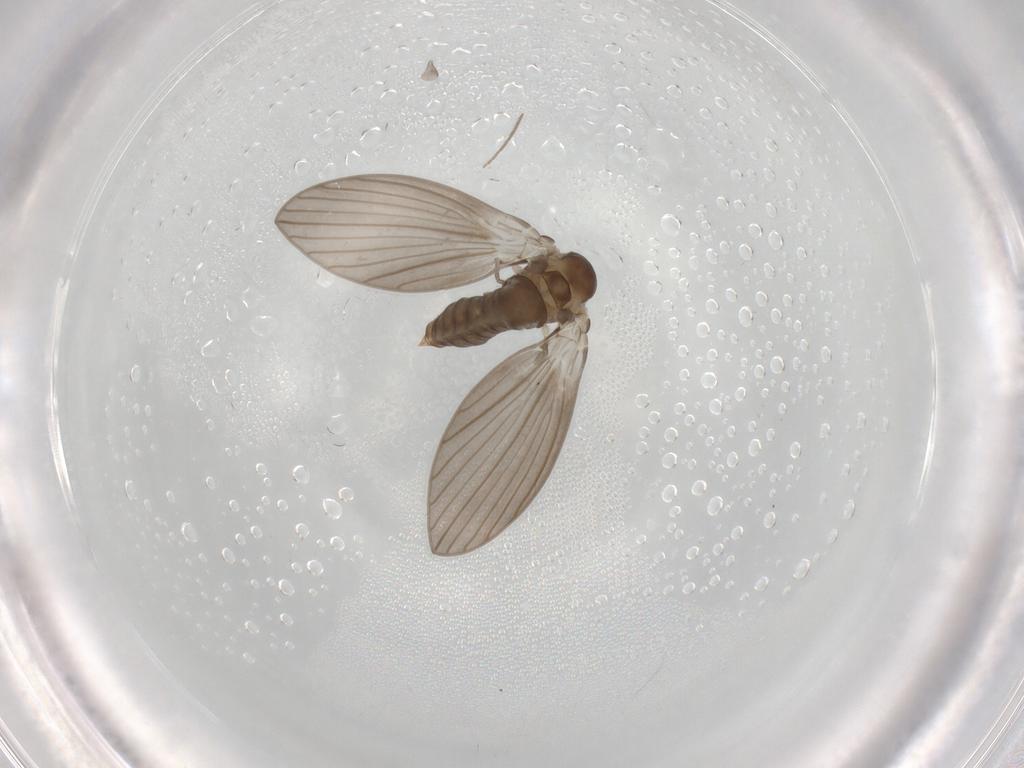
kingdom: Animalia
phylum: Arthropoda
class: Insecta
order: Diptera
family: Psychodidae
